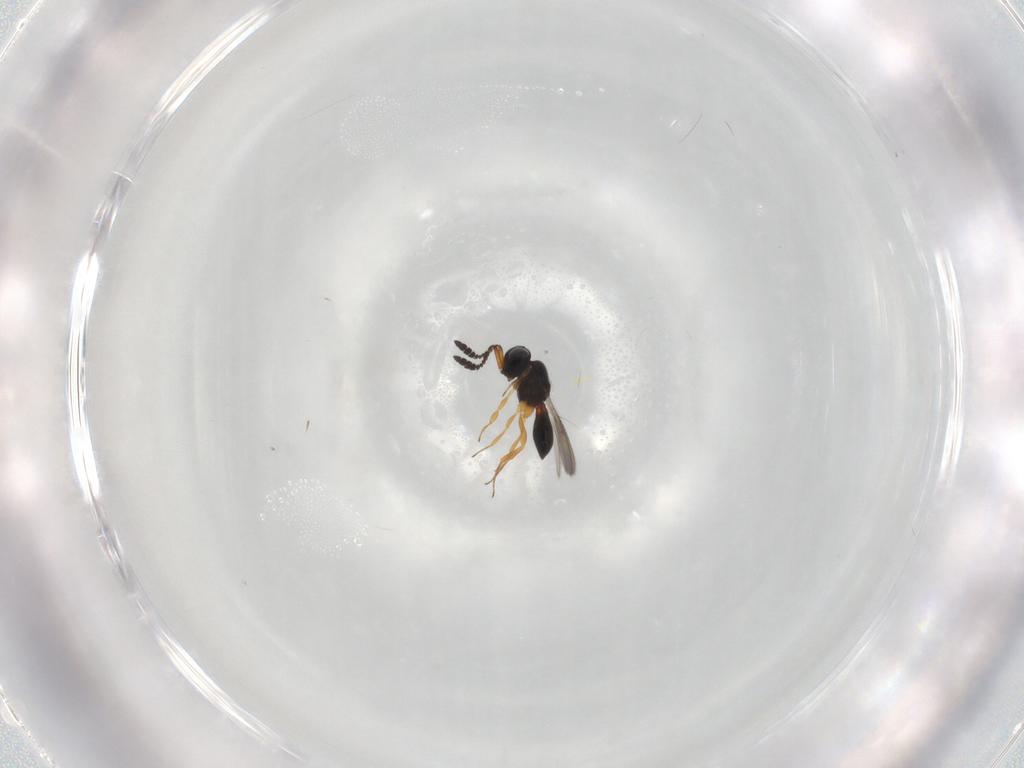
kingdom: Animalia
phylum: Arthropoda
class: Insecta
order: Hymenoptera
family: Scelionidae
